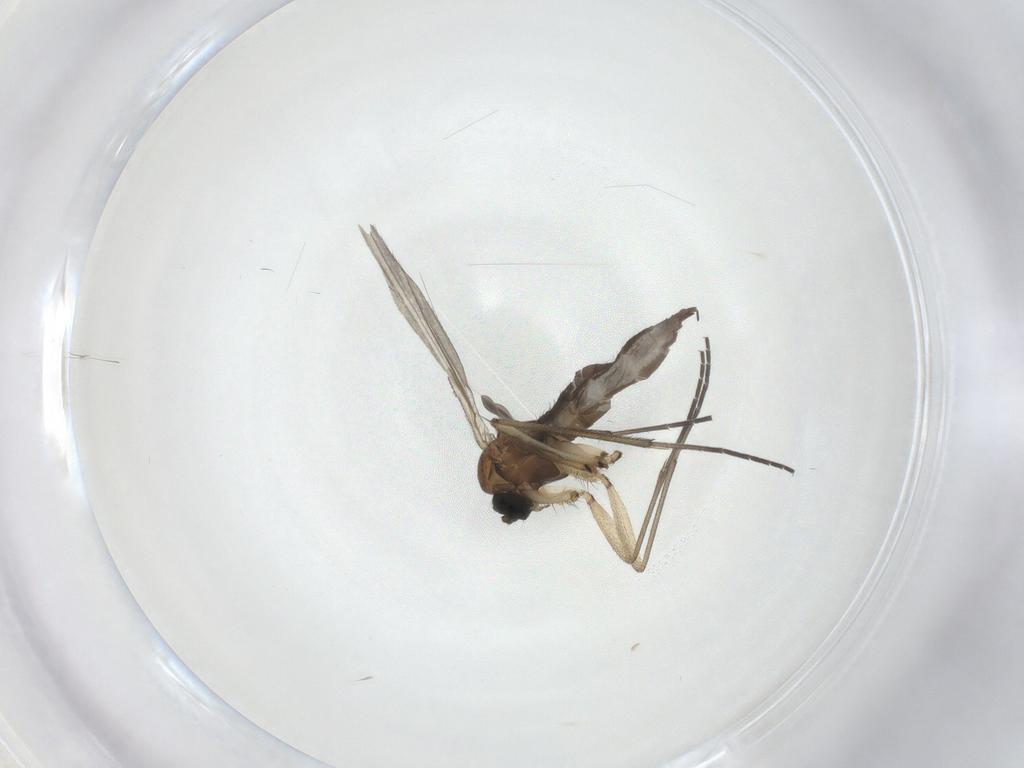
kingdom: Animalia
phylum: Arthropoda
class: Insecta
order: Diptera
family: Sciaridae
